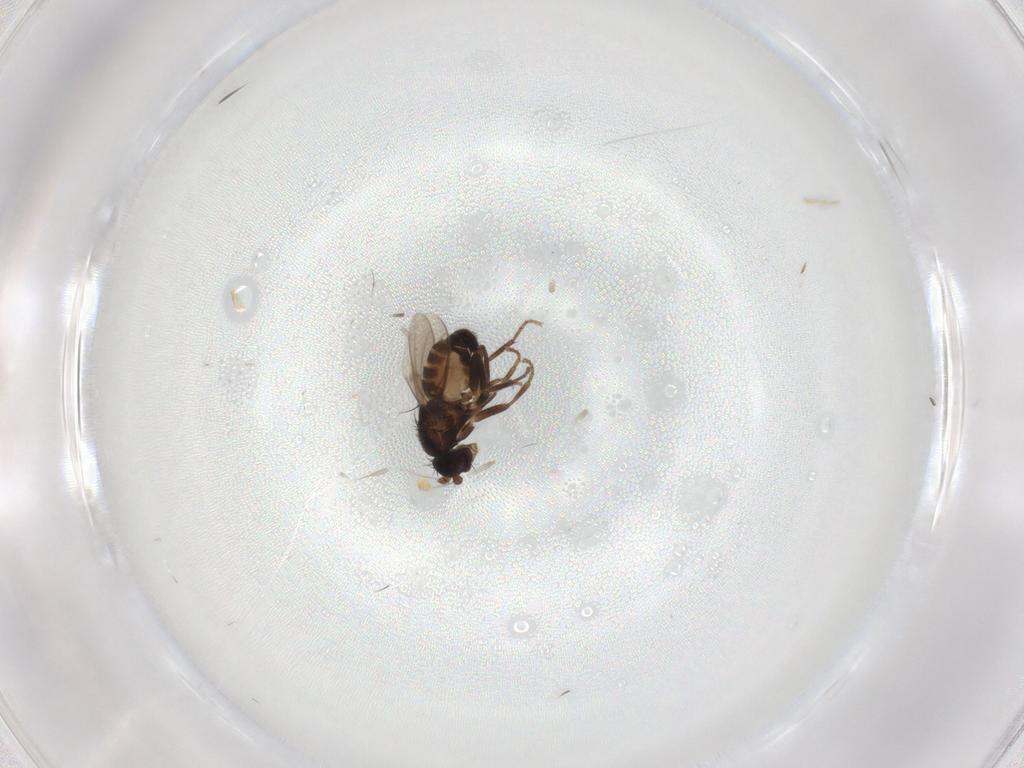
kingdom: Animalia
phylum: Arthropoda
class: Insecta
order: Diptera
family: Sphaeroceridae
